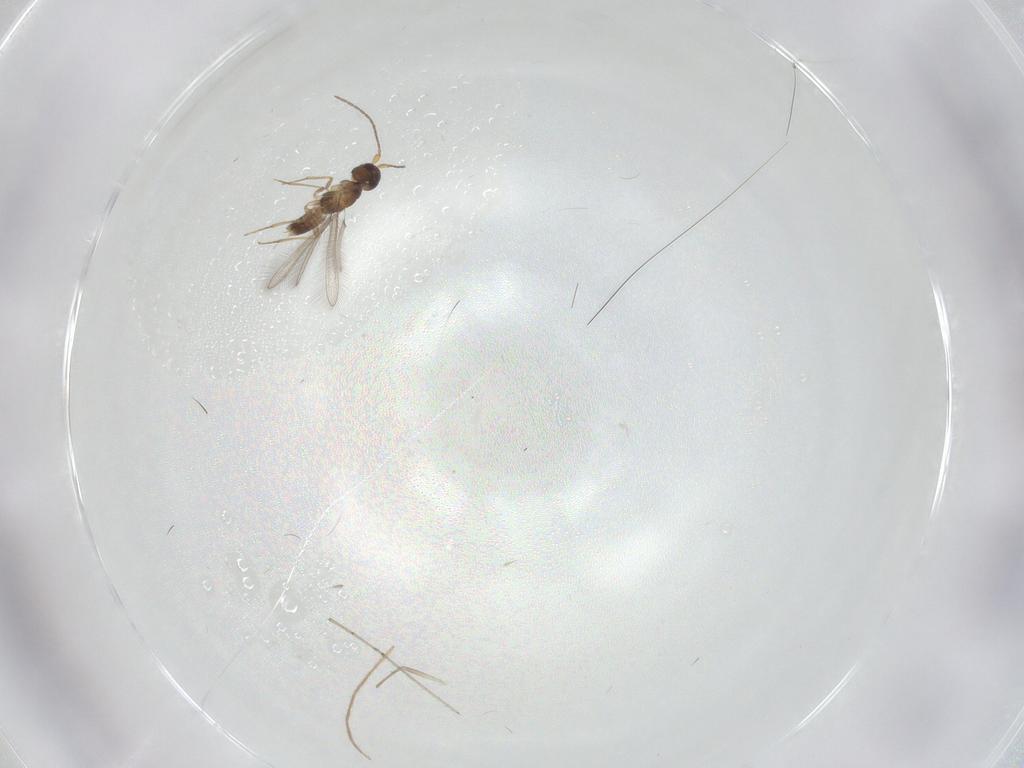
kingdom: Animalia
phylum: Arthropoda
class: Insecta
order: Hymenoptera
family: Mymaridae
